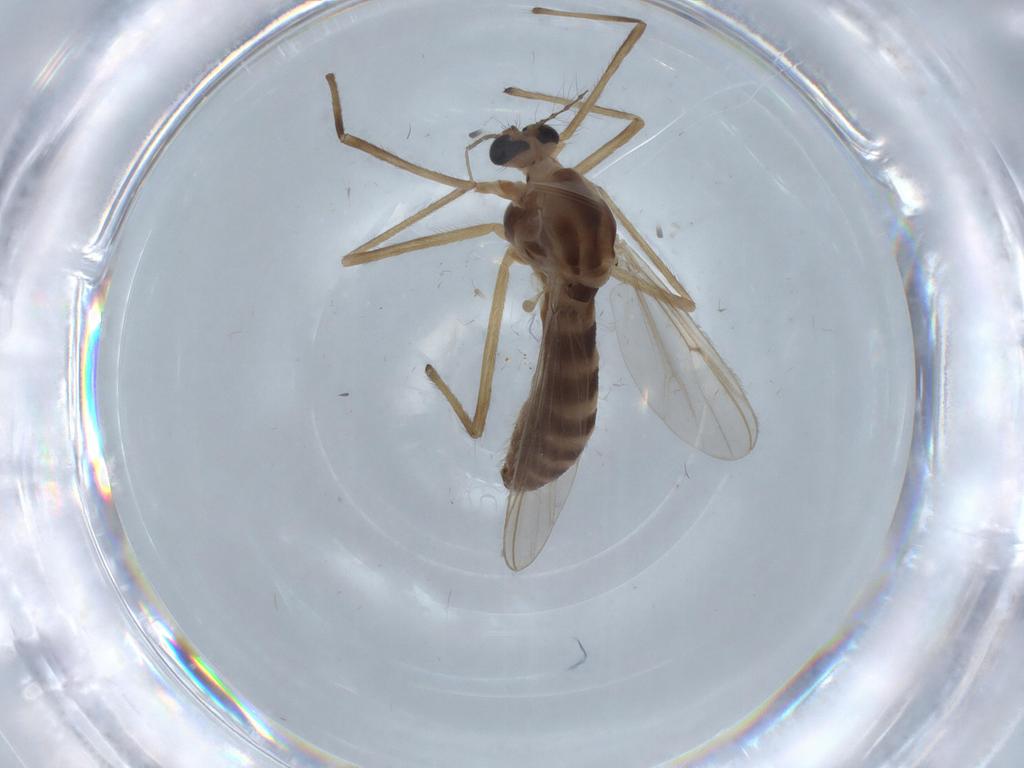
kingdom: Animalia
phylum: Arthropoda
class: Insecta
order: Diptera
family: Chironomidae
